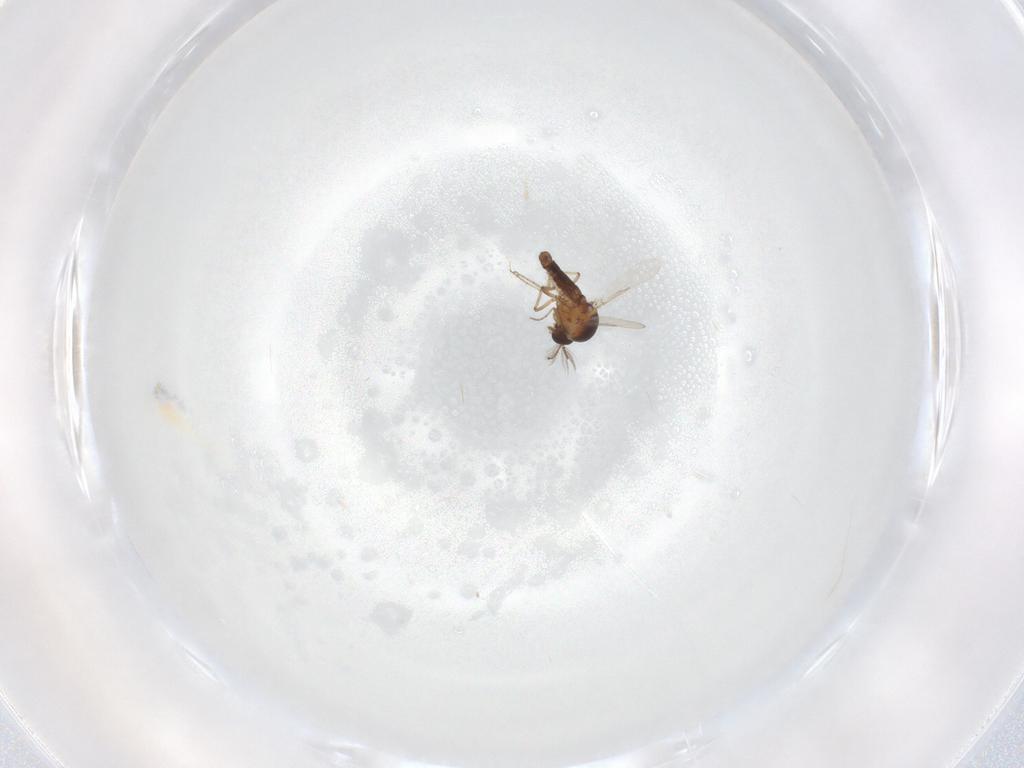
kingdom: Animalia
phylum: Arthropoda
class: Insecta
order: Diptera
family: Ceratopogonidae
